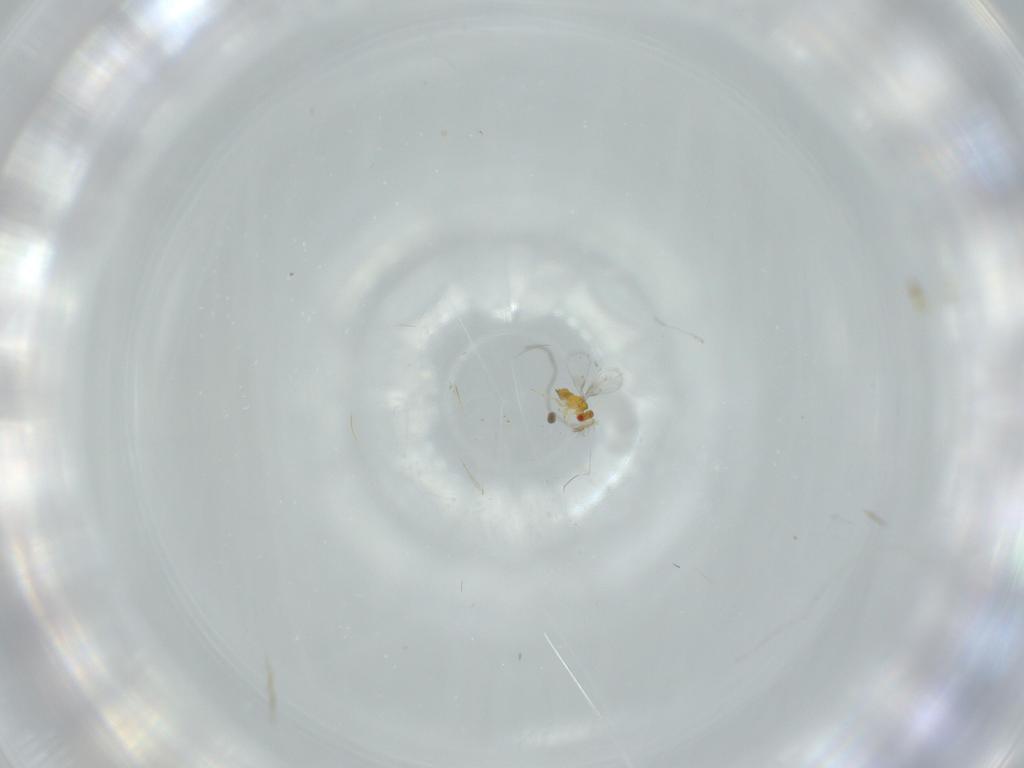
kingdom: Animalia
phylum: Arthropoda
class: Insecta
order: Hymenoptera
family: Trichogrammatidae
